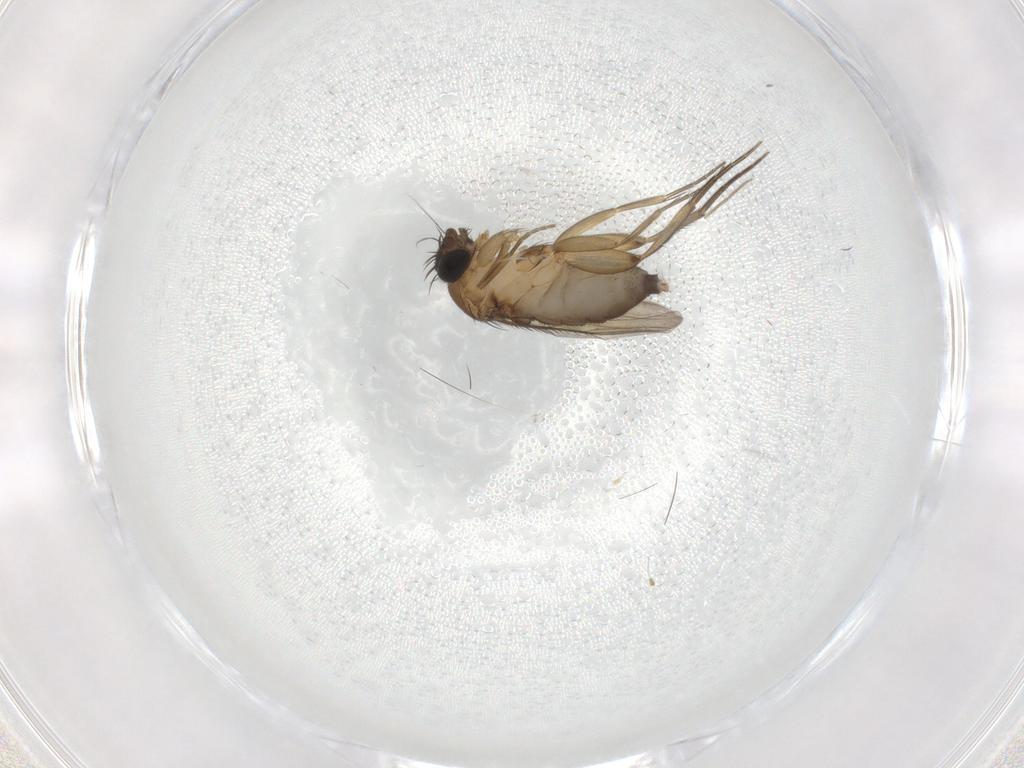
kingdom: Animalia
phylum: Arthropoda
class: Insecta
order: Diptera
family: Phoridae
